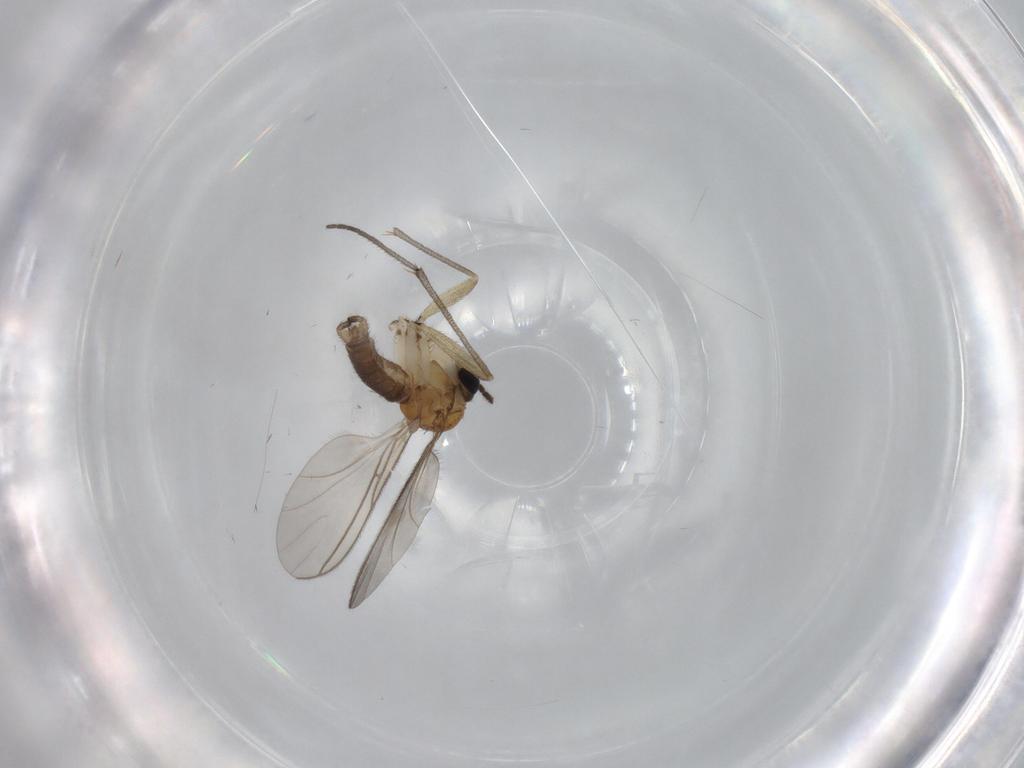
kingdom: Animalia
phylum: Arthropoda
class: Insecta
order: Diptera
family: Sciaridae
